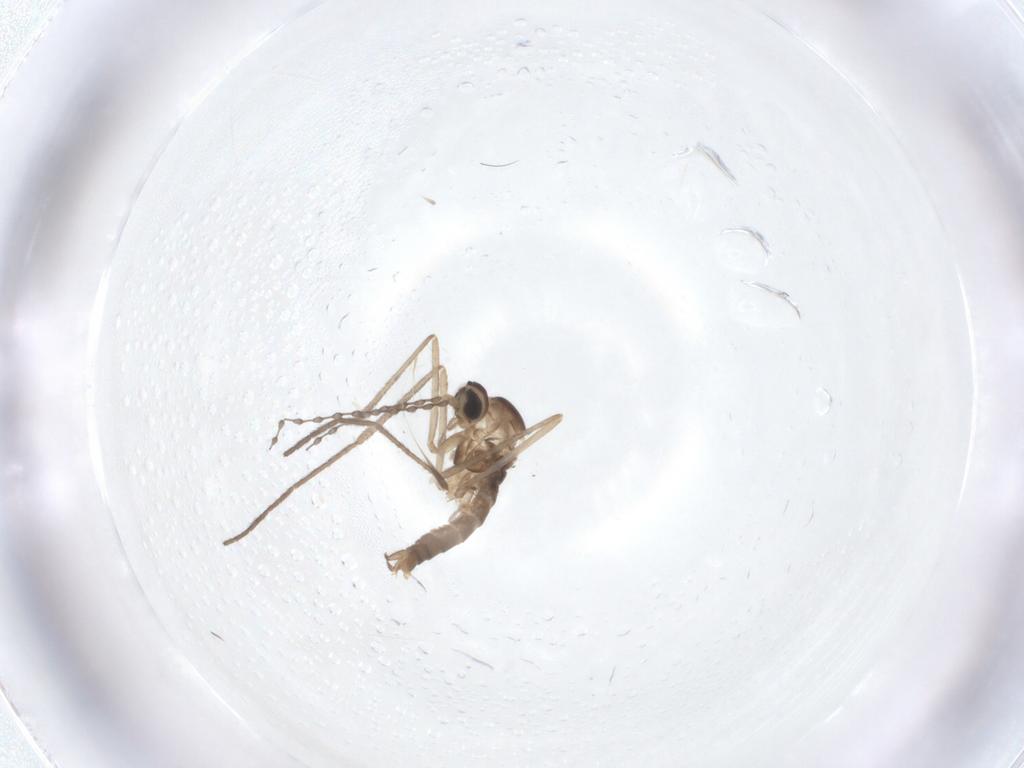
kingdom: Animalia
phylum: Arthropoda
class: Insecta
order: Diptera
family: Cecidomyiidae
